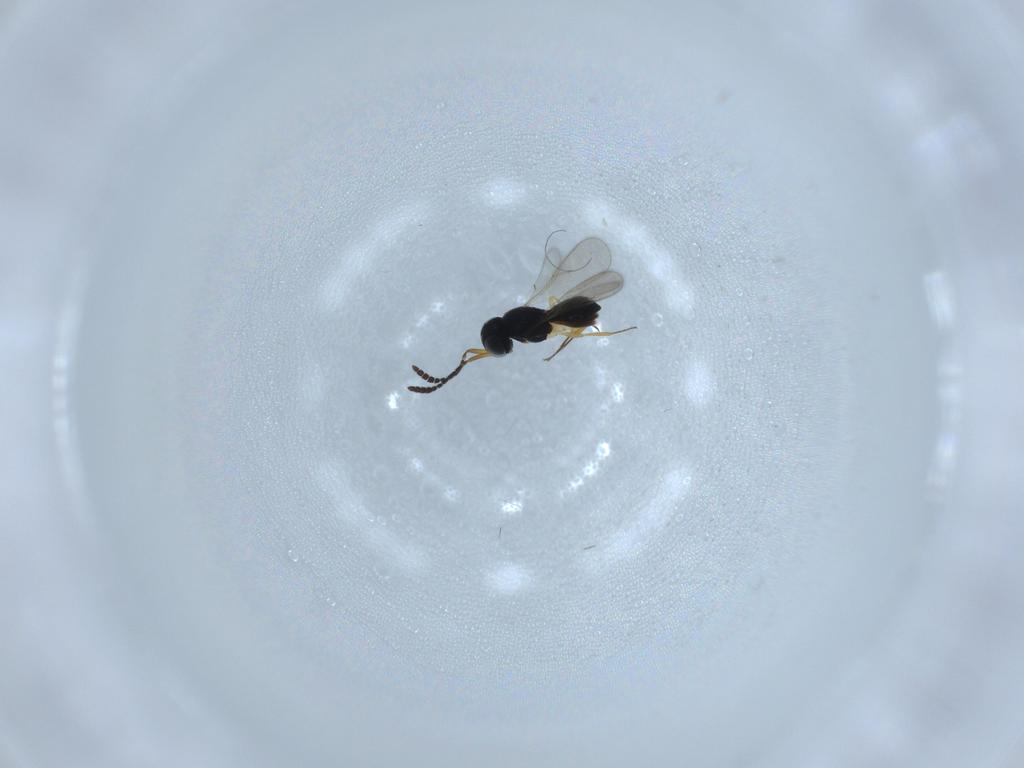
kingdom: Animalia
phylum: Arthropoda
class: Insecta
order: Hymenoptera
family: Scelionidae
